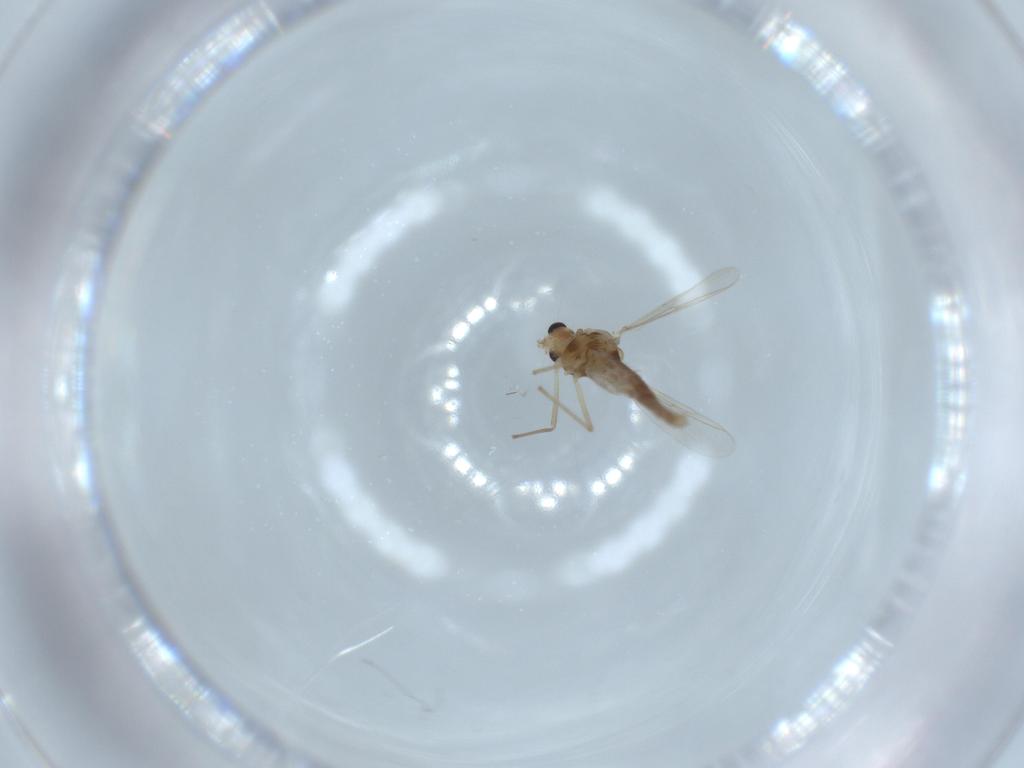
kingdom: Animalia
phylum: Arthropoda
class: Insecta
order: Diptera
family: Chironomidae
